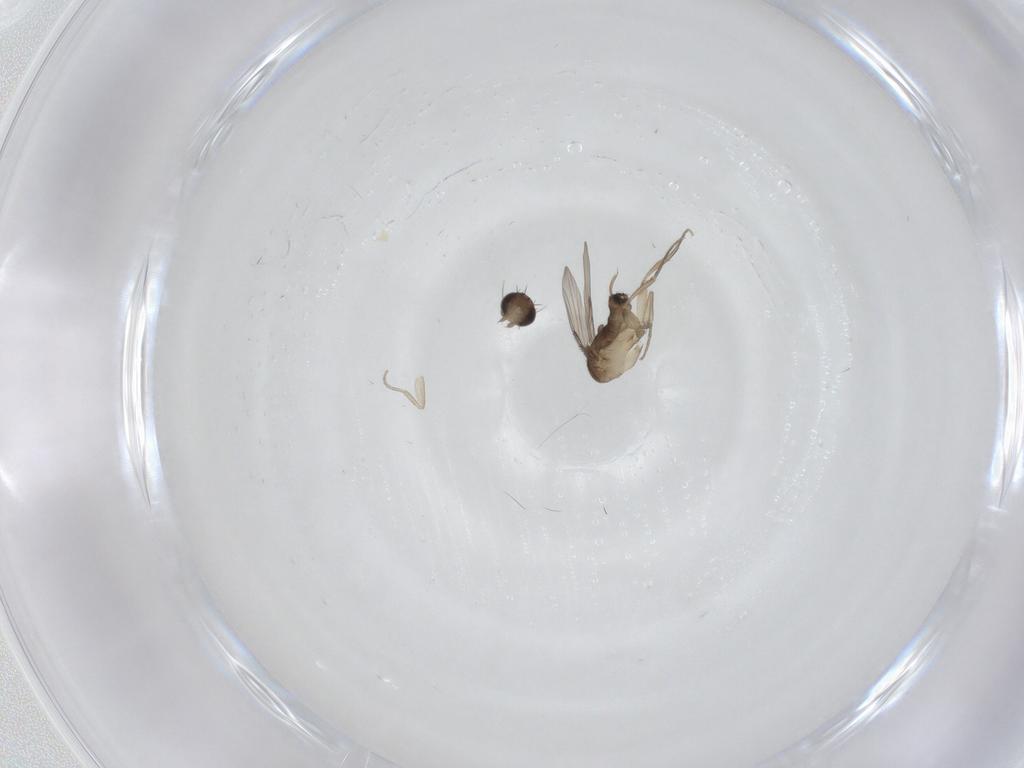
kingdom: Animalia
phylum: Arthropoda
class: Insecta
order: Diptera
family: Phoridae
